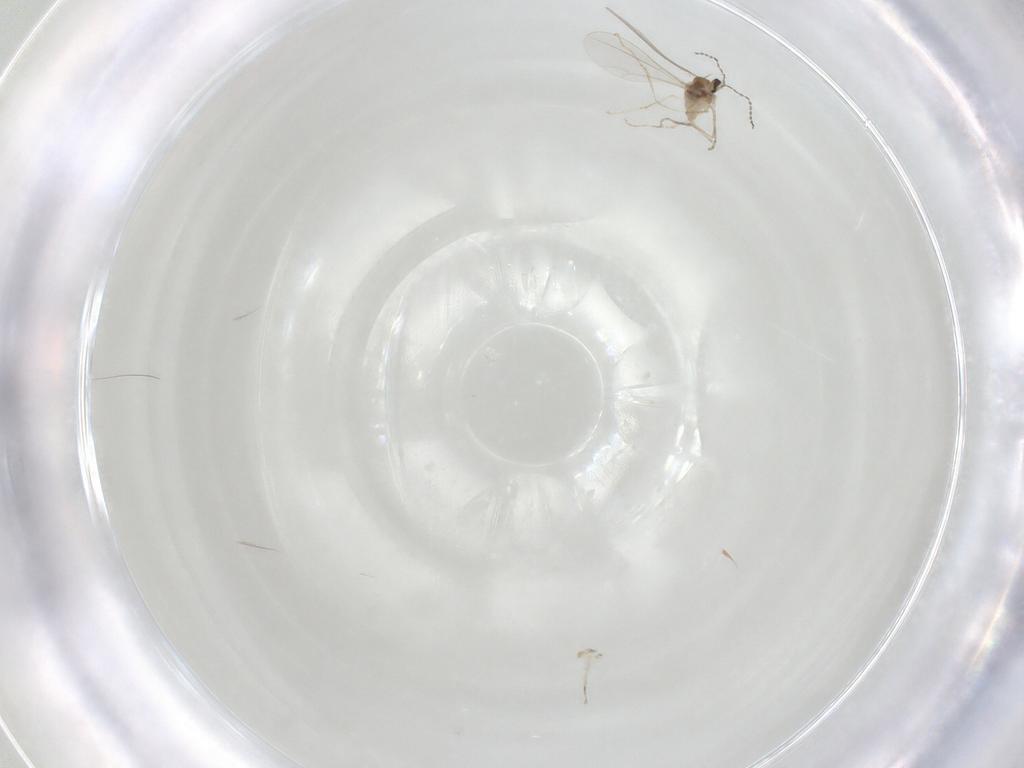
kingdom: Animalia
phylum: Arthropoda
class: Insecta
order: Diptera
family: Cecidomyiidae
